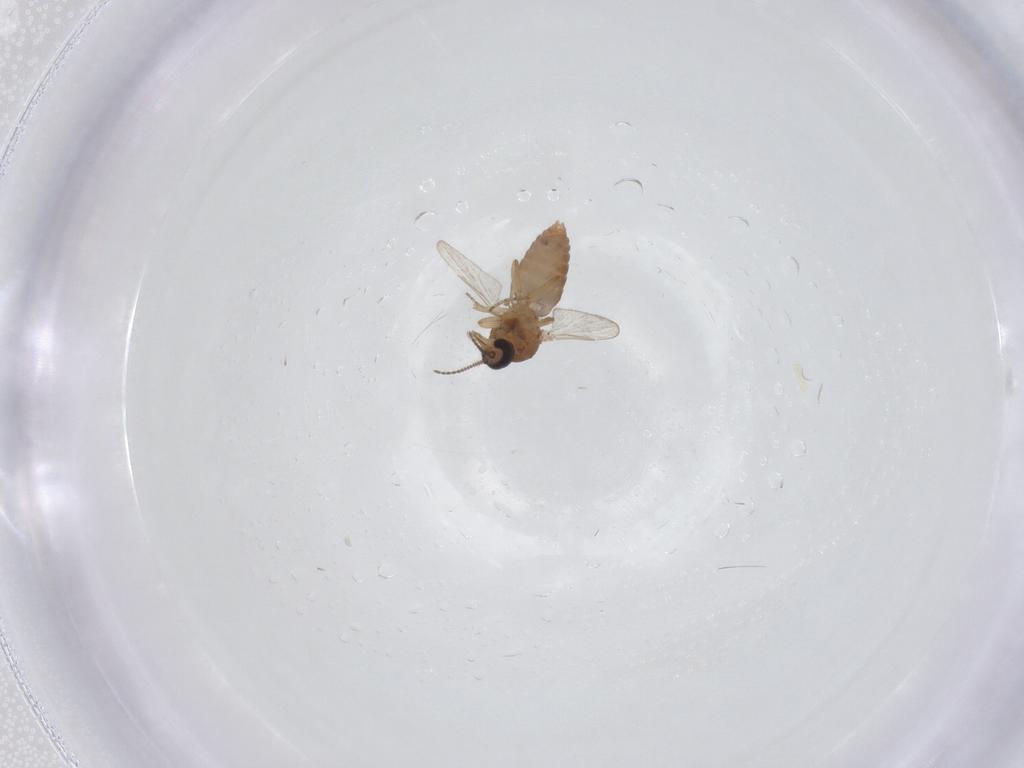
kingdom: Animalia
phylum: Arthropoda
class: Insecta
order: Diptera
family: Ceratopogonidae
